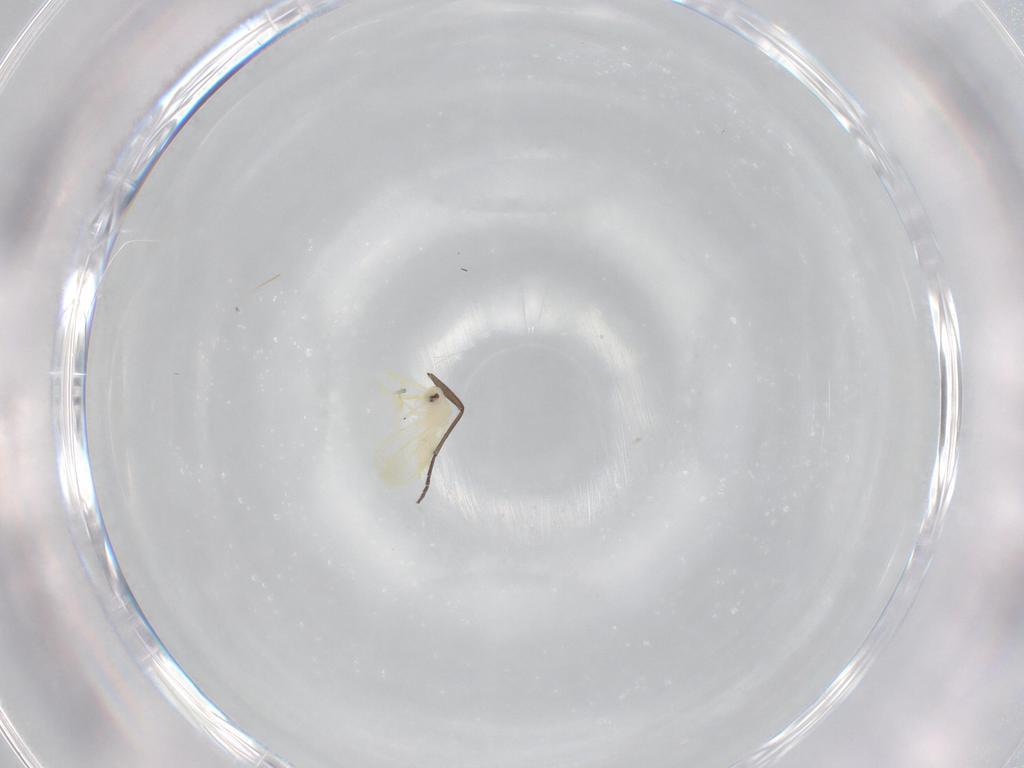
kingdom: Animalia
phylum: Arthropoda
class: Insecta
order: Hemiptera
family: Aleyrodidae
